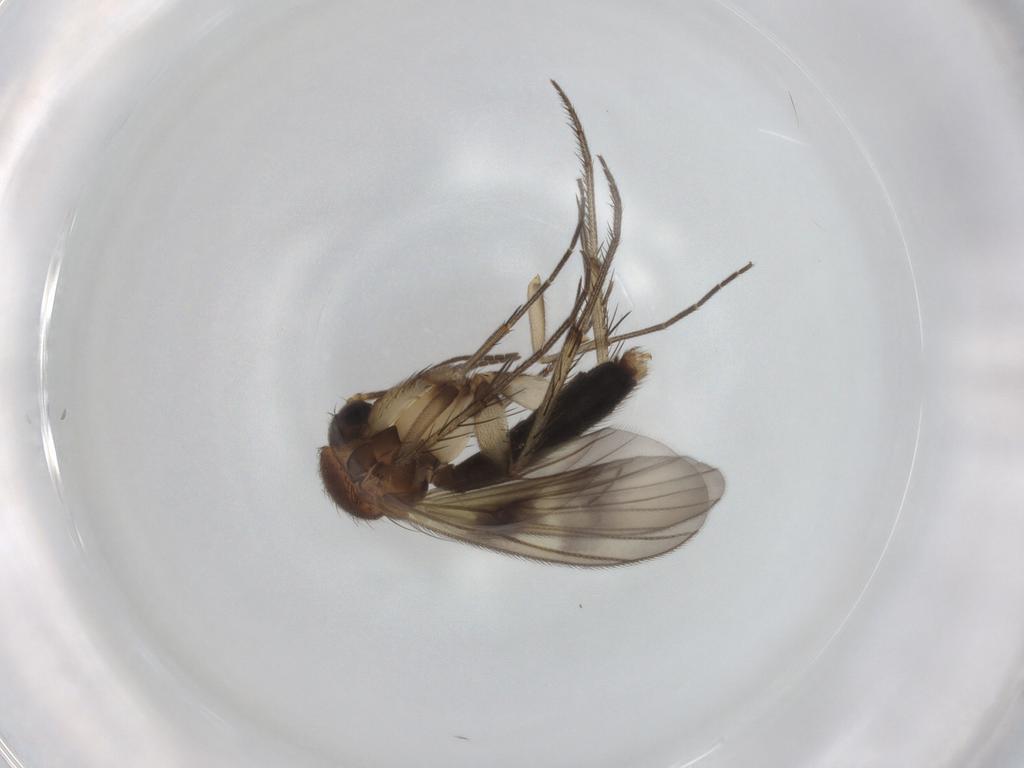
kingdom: Animalia
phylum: Arthropoda
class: Insecta
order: Diptera
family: Mycetophilidae
